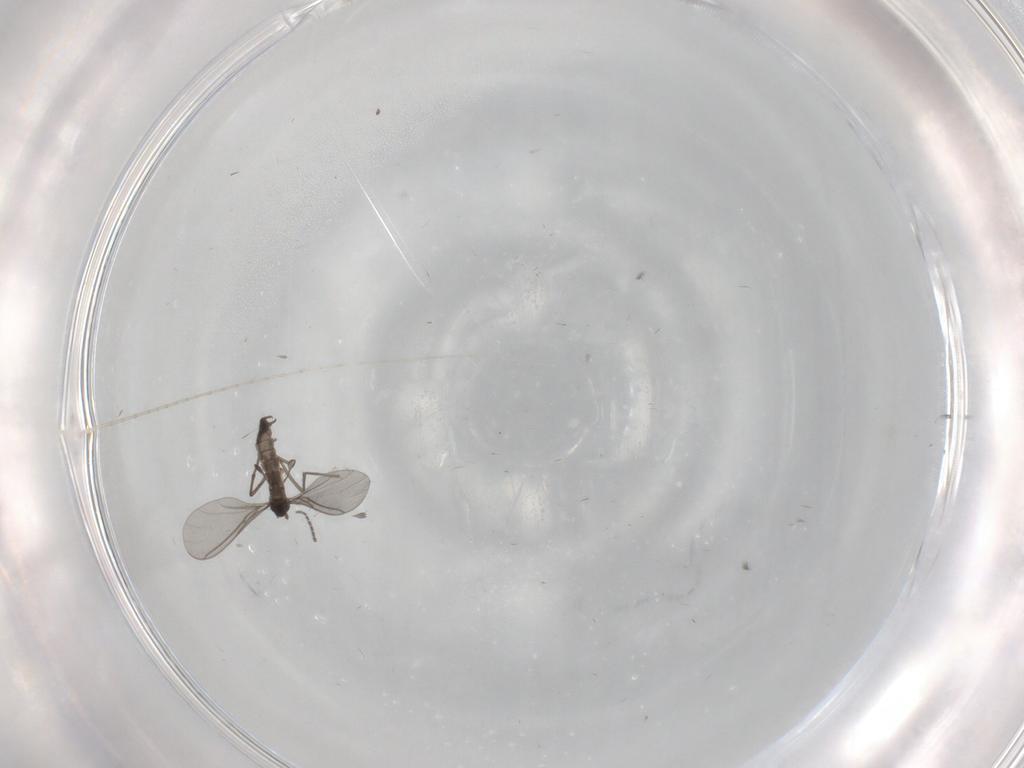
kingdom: Animalia
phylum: Arthropoda
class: Insecta
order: Diptera
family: Sciaridae
